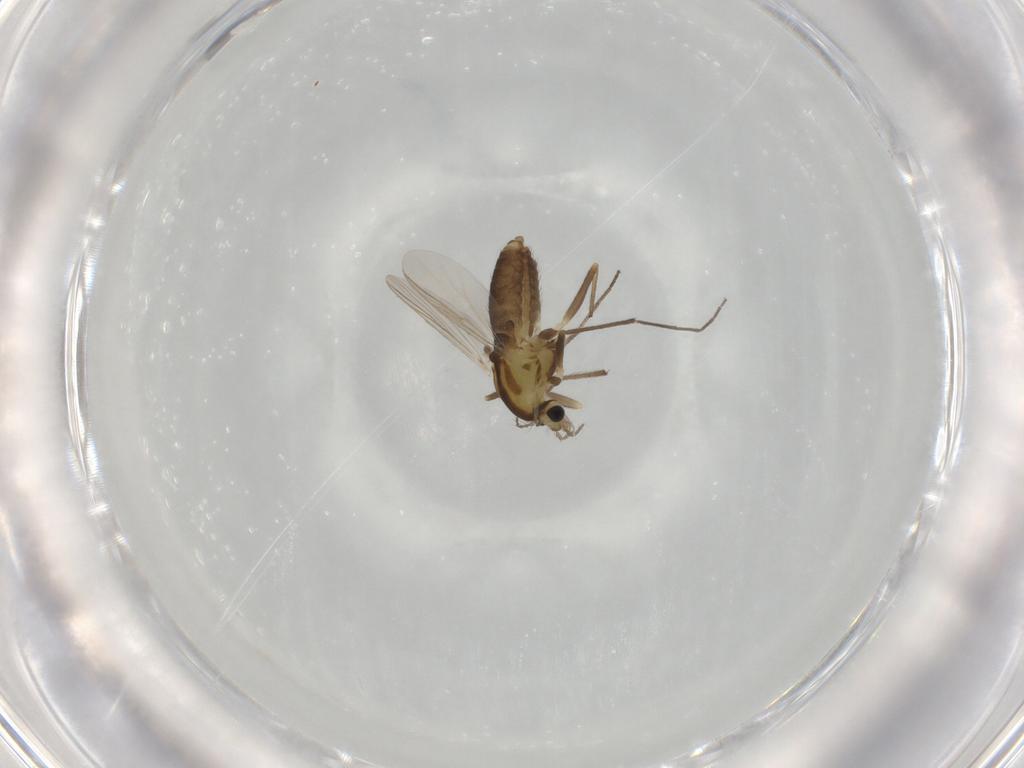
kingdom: Animalia
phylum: Arthropoda
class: Insecta
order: Diptera
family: Chironomidae
